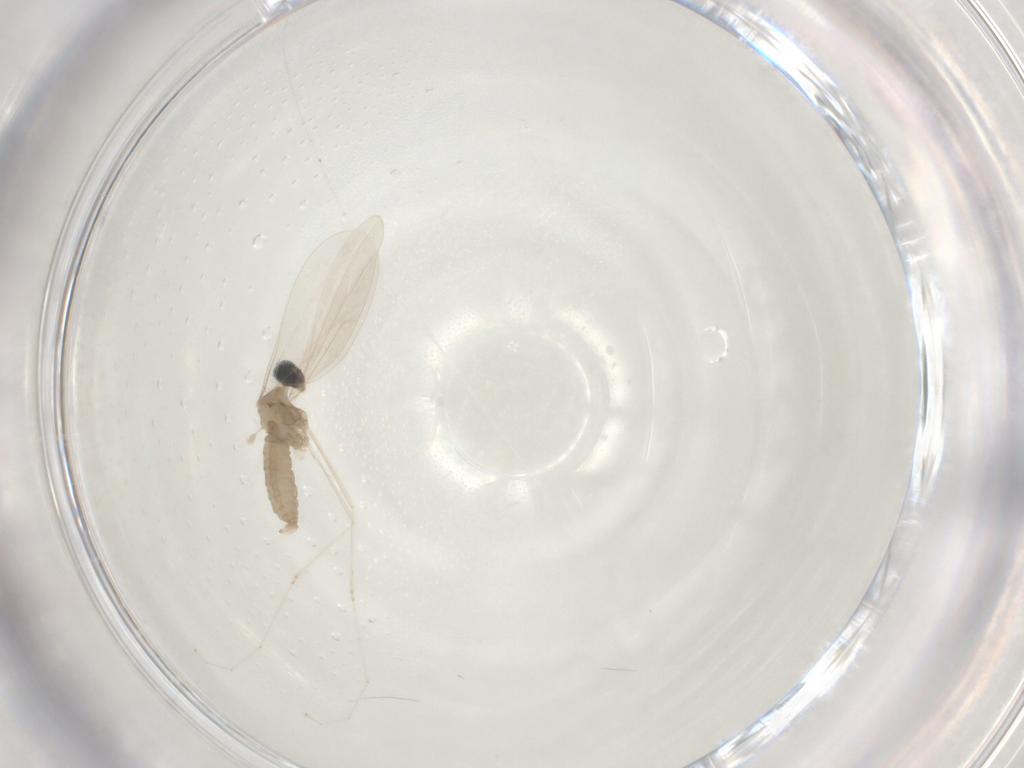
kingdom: Animalia
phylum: Arthropoda
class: Insecta
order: Diptera
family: Cecidomyiidae
